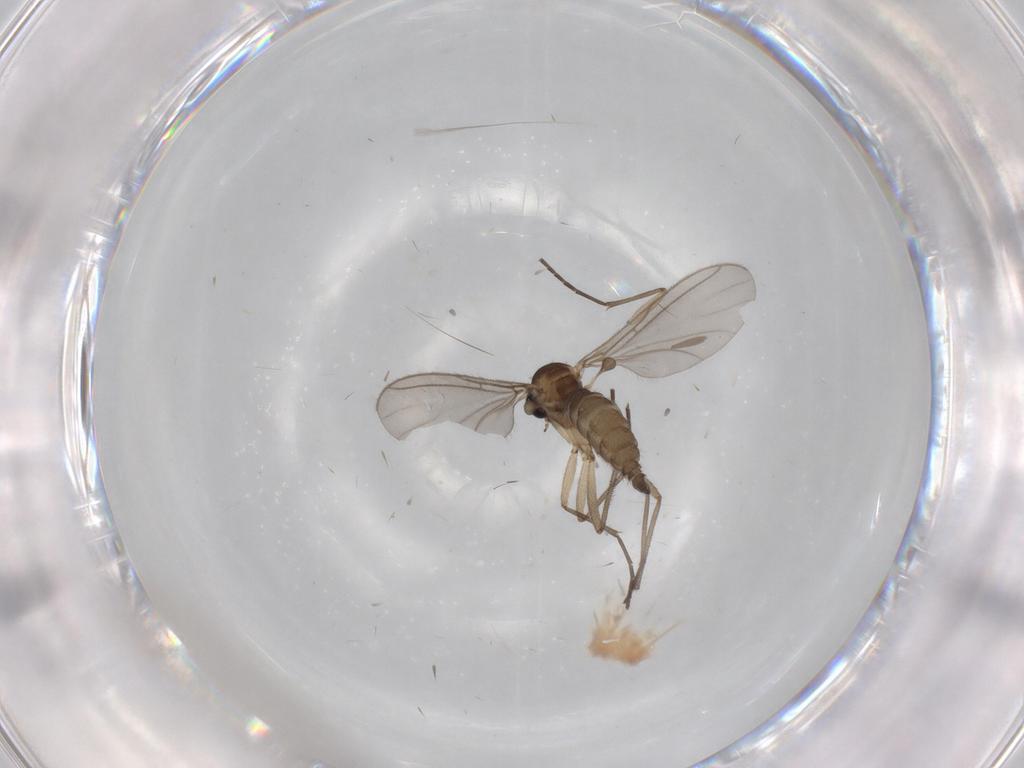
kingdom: Animalia
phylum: Arthropoda
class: Insecta
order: Diptera
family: Sciaridae
